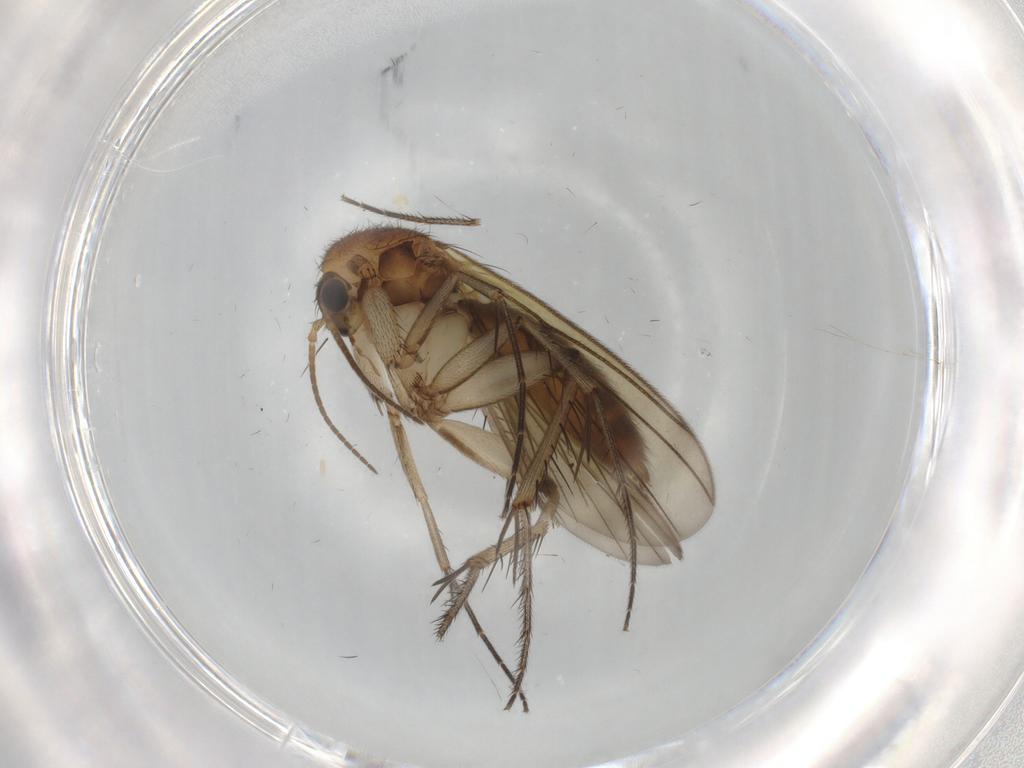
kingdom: Animalia
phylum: Arthropoda
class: Insecta
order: Diptera
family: Mycetophilidae
